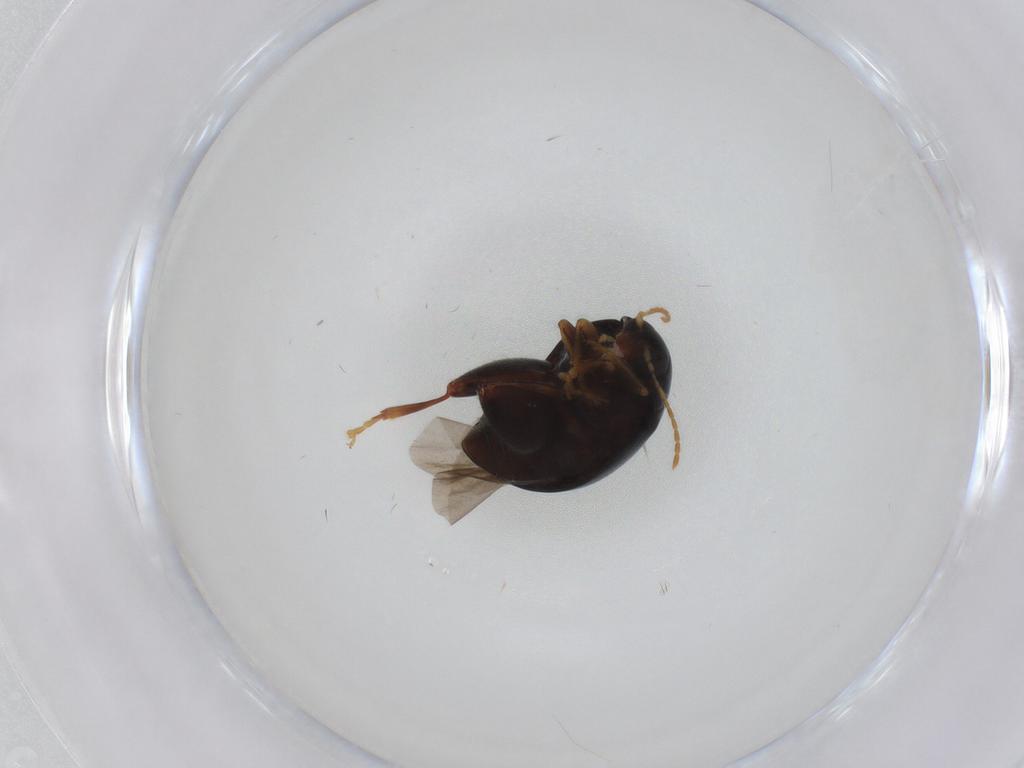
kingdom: Animalia
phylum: Arthropoda
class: Insecta
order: Coleoptera
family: Chrysomelidae
